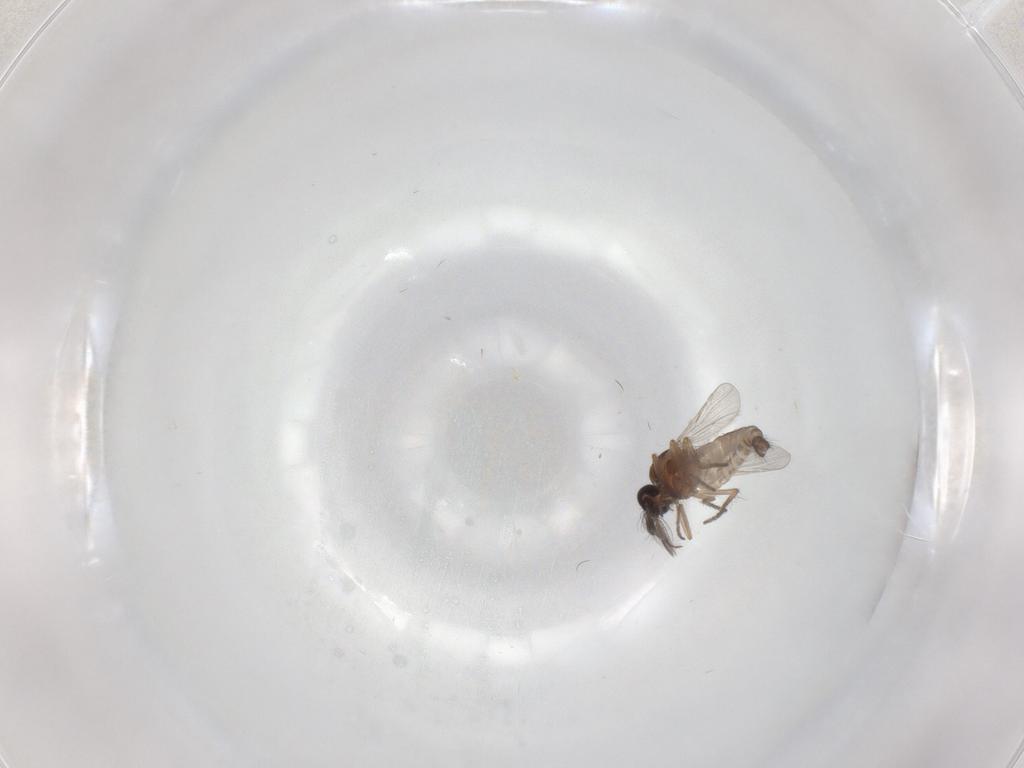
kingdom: Animalia
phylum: Arthropoda
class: Insecta
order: Diptera
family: Ceratopogonidae
